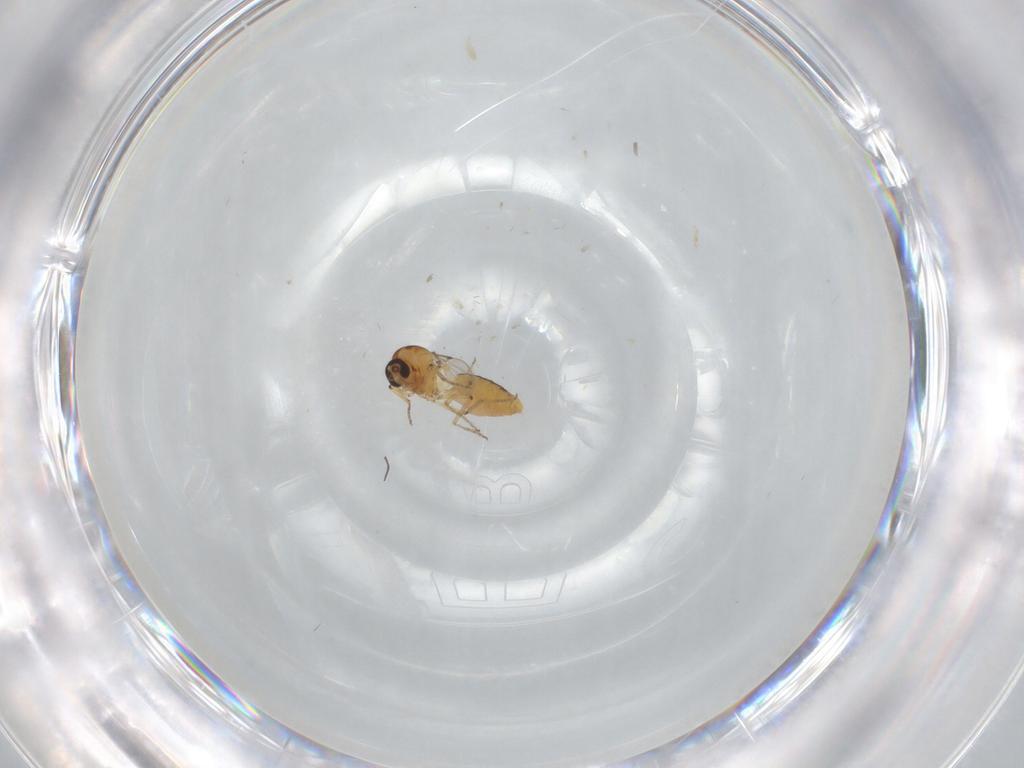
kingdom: Animalia
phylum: Arthropoda
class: Insecta
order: Diptera
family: Ceratopogonidae
